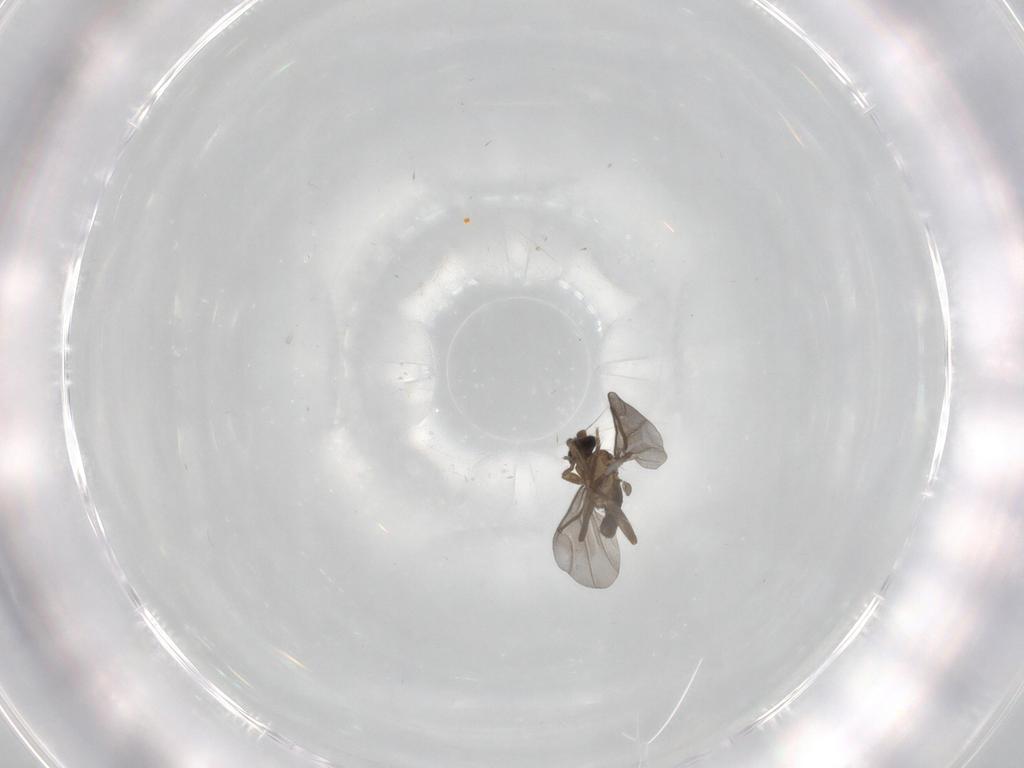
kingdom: Animalia
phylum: Arthropoda
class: Insecta
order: Diptera
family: Phoridae
